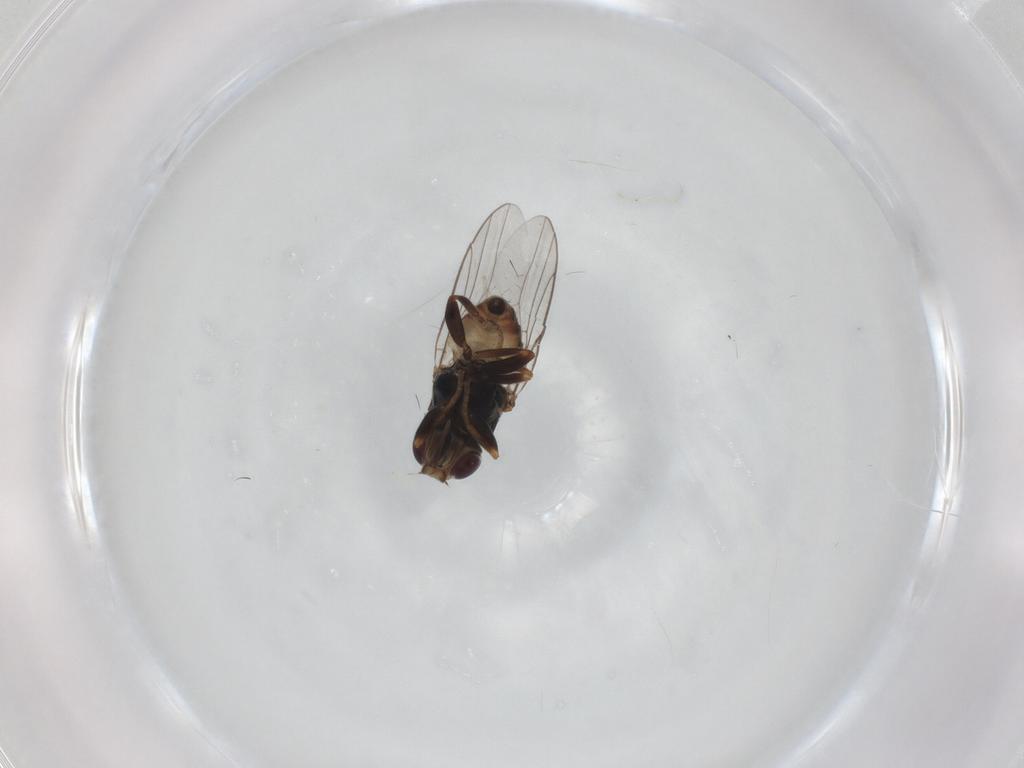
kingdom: Animalia
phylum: Arthropoda
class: Insecta
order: Diptera
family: Chloropidae
